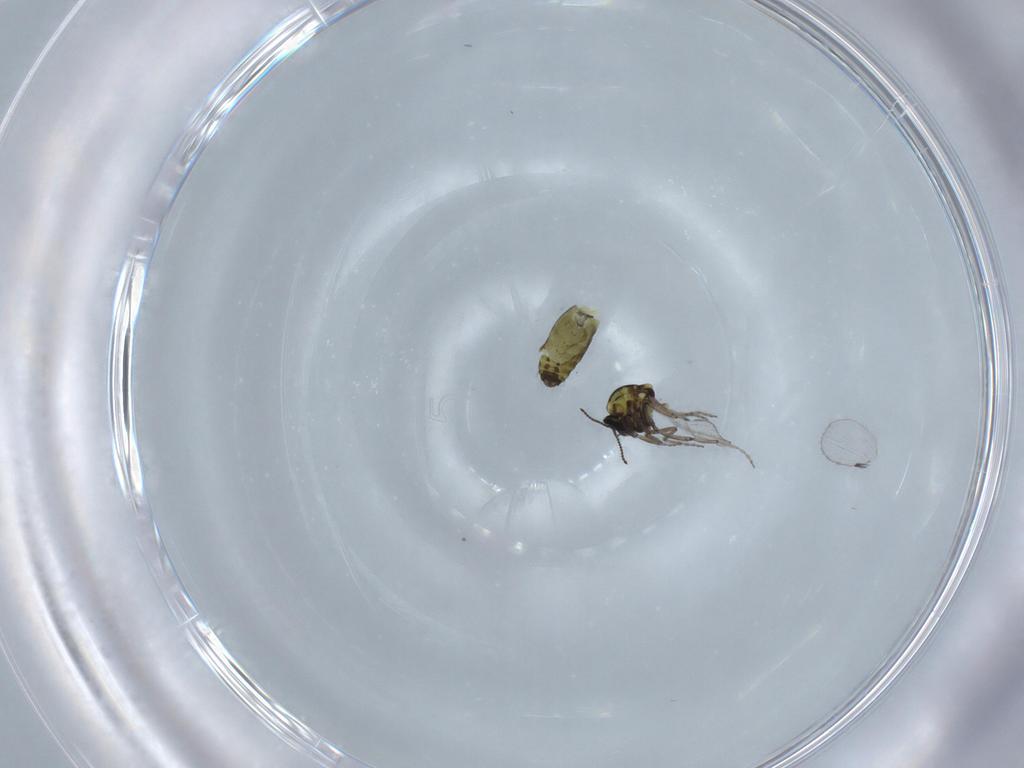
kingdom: Animalia
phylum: Arthropoda
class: Insecta
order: Diptera
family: Ceratopogonidae
